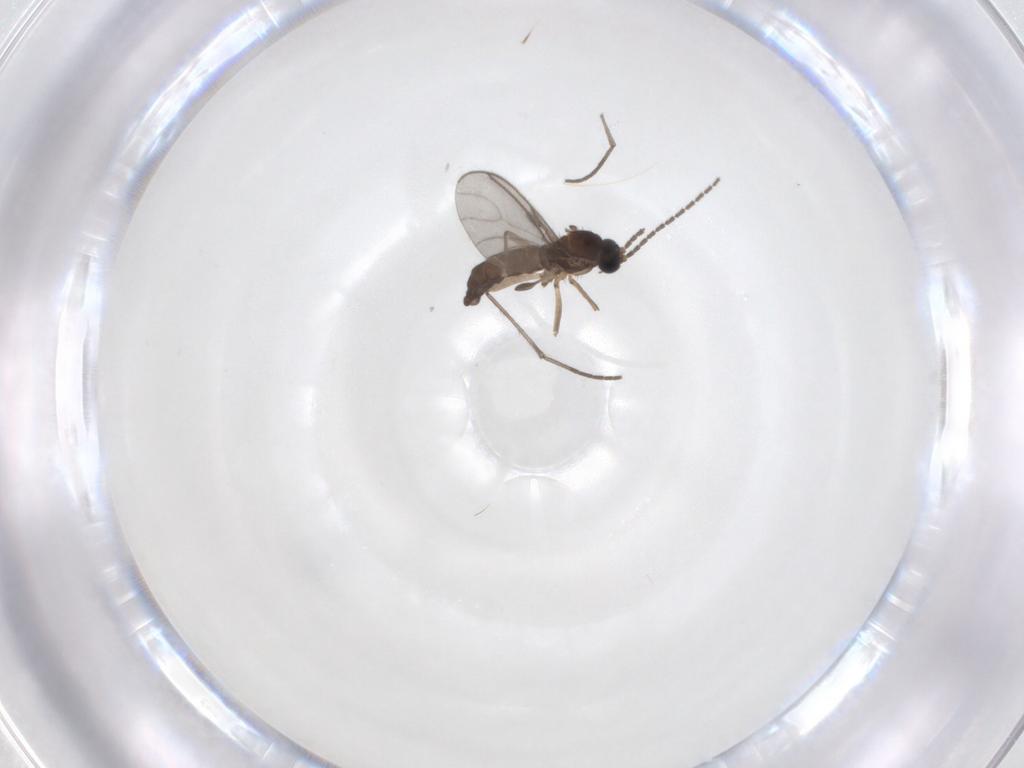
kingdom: Animalia
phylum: Arthropoda
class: Insecta
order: Diptera
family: Sciaridae
